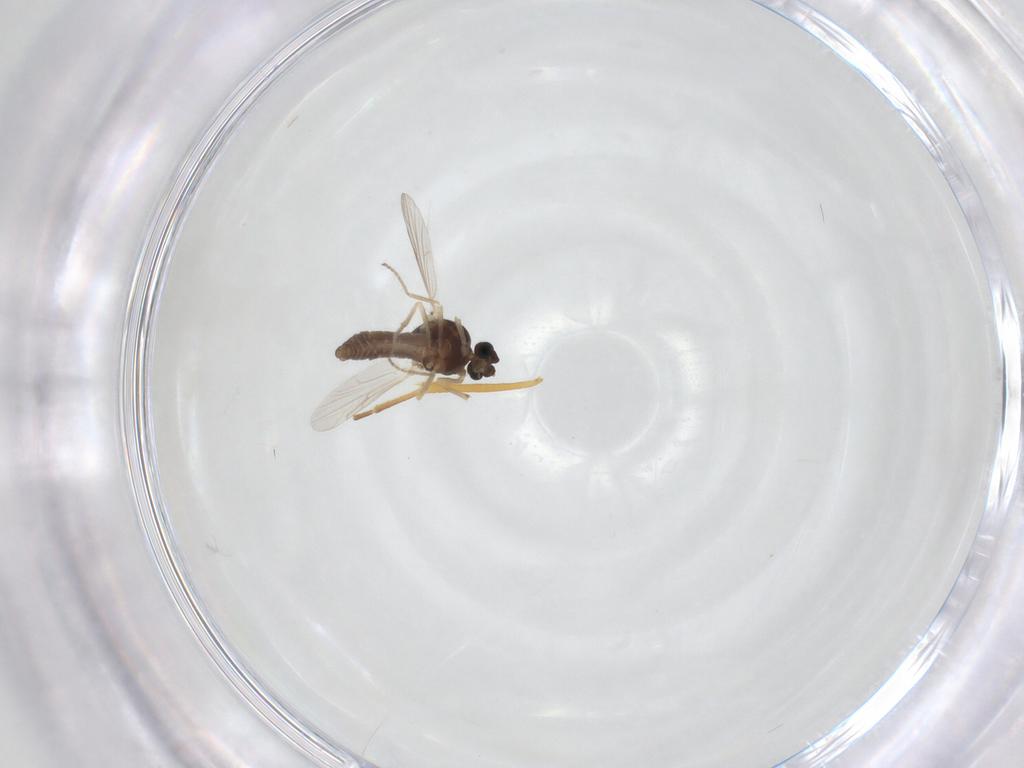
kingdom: Animalia
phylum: Arthropoda
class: Insecta
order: Diptera
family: Ceratopogonidae
